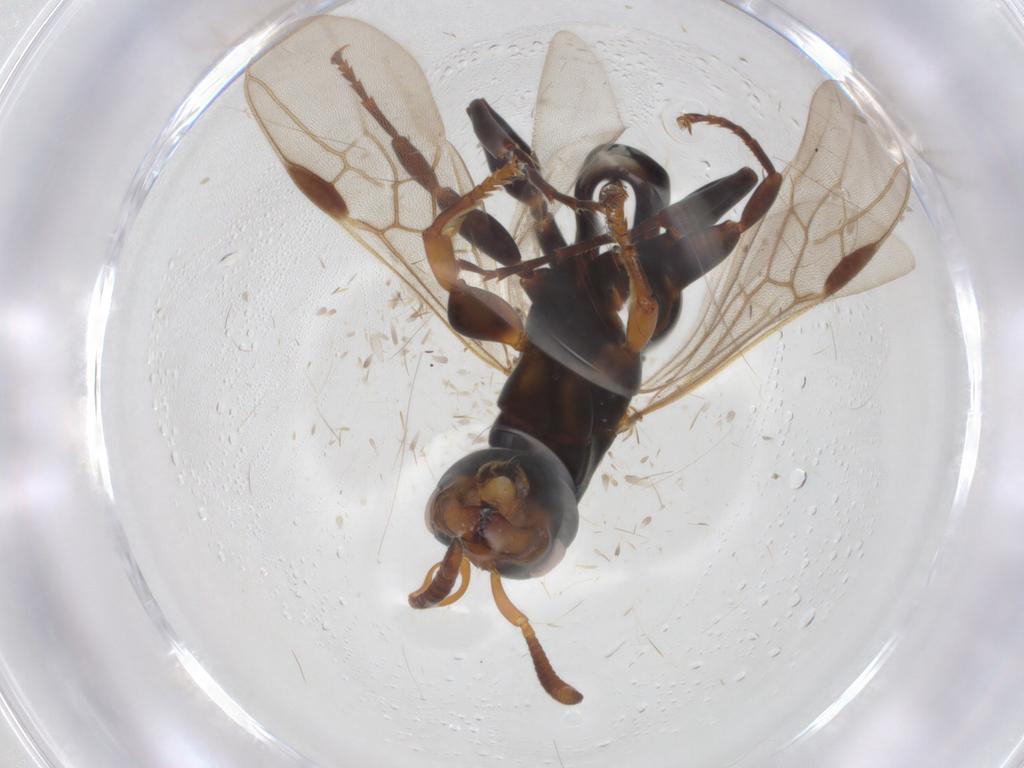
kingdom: Animalia
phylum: Arthropoda
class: Insecta
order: Hymenoptera
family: Formicidae
